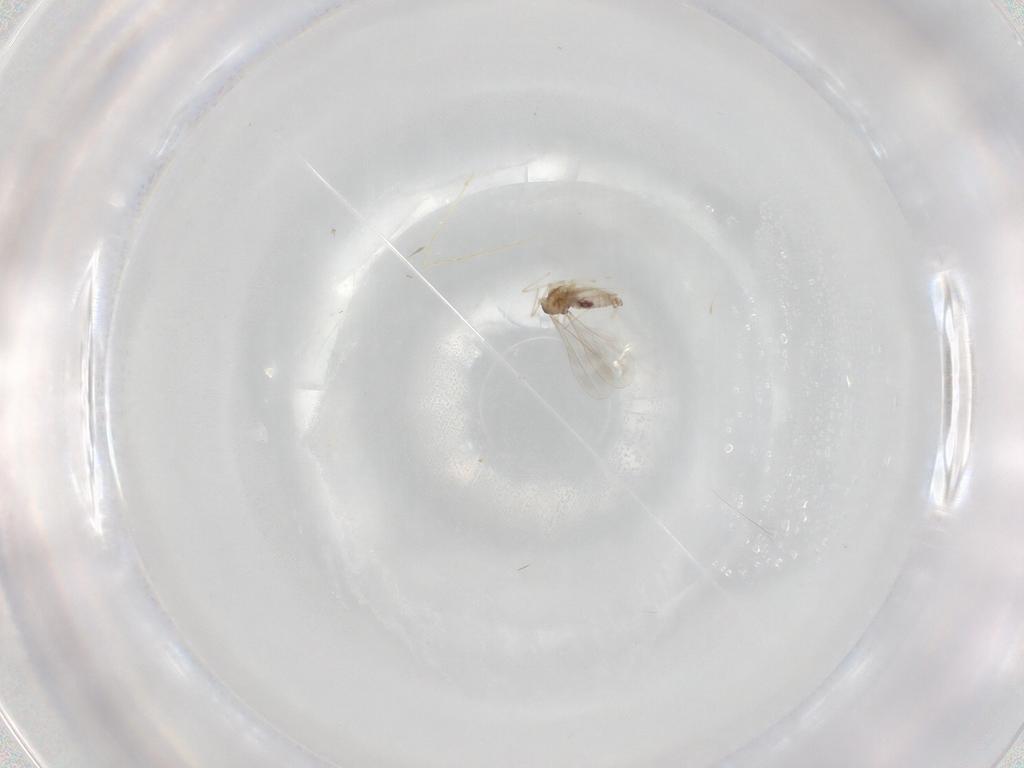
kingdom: Animalia
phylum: Arthropoda
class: Insecta
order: Diptera
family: Cecidomyiidae
